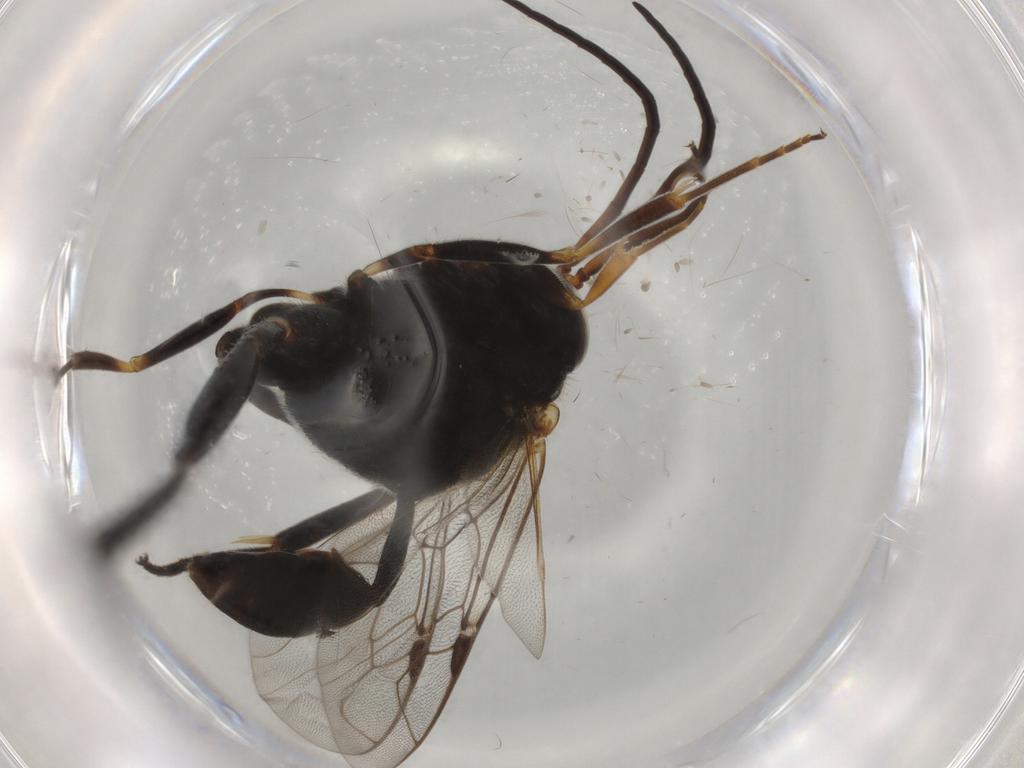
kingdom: Animalia
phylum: Arthropoda
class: Insecta
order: Hymenoptera
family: Evaniidae
